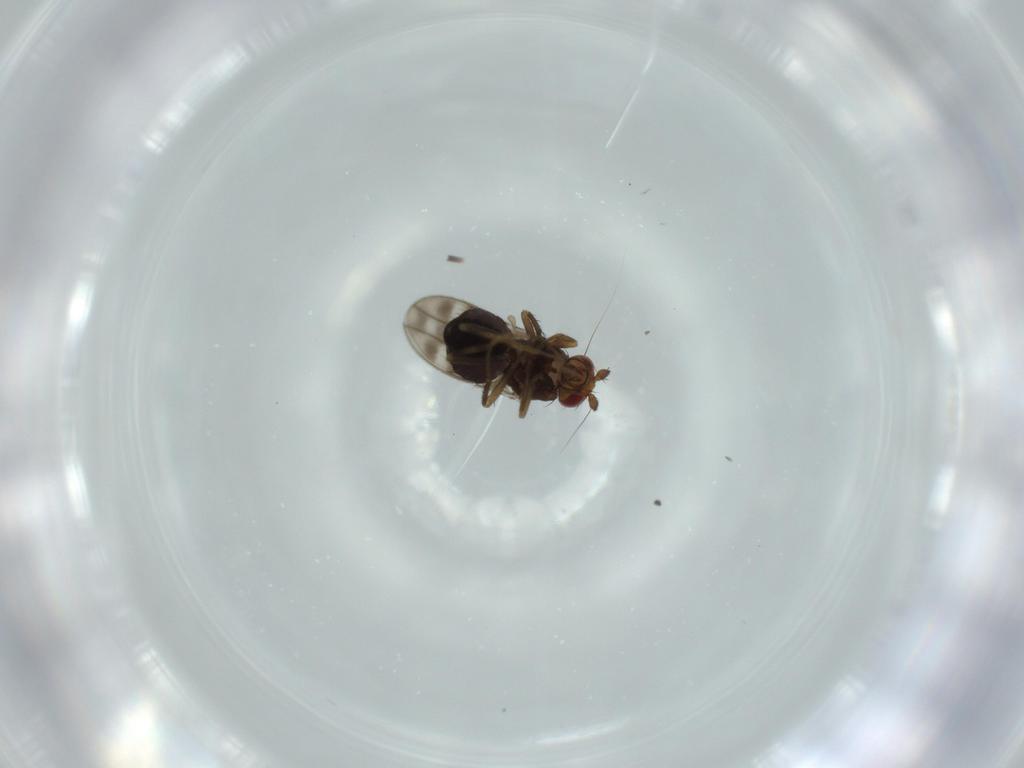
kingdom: Animalia
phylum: Arthropoda
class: Insecta
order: Diptera
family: Sphaeroceridae
